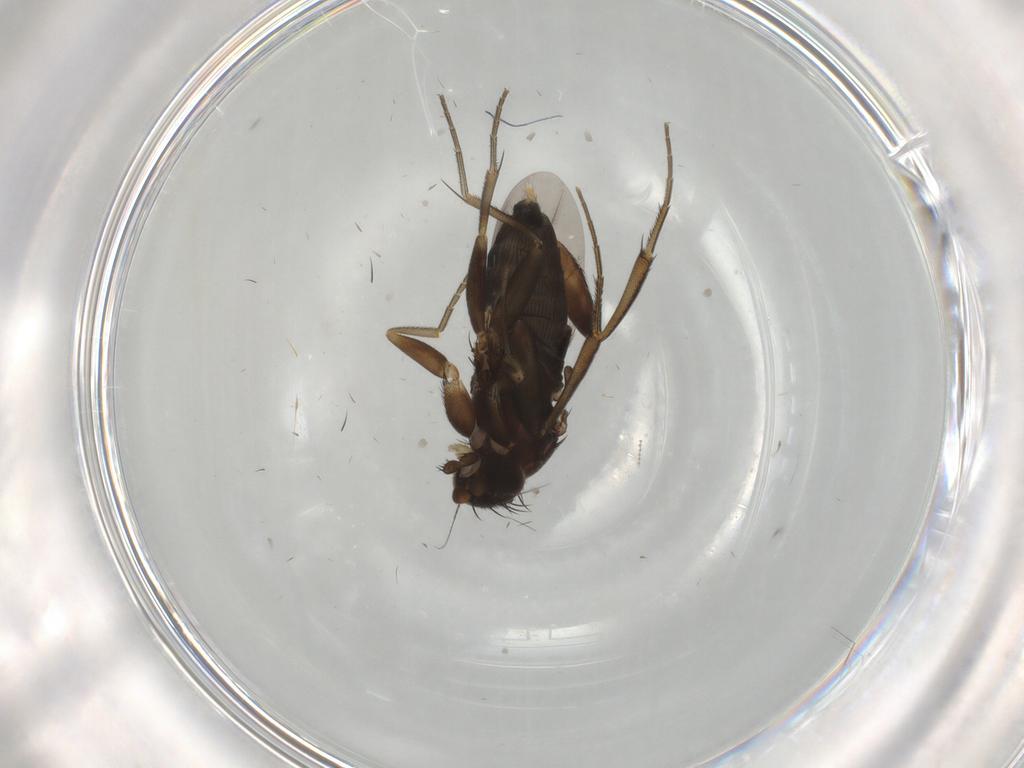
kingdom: Animalia
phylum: Arthropoda
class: Insecta
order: Diptera
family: Phoridae
